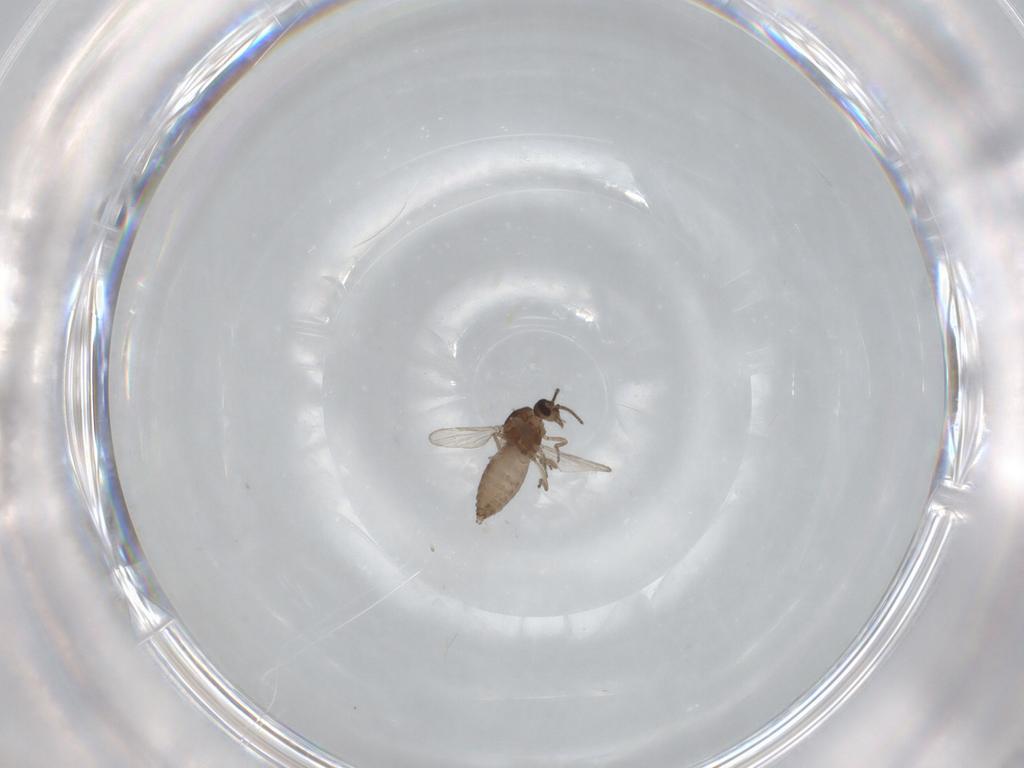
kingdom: Animalia
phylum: Arthropoda
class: Insecta
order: Diptera
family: Ceratopogonidae
